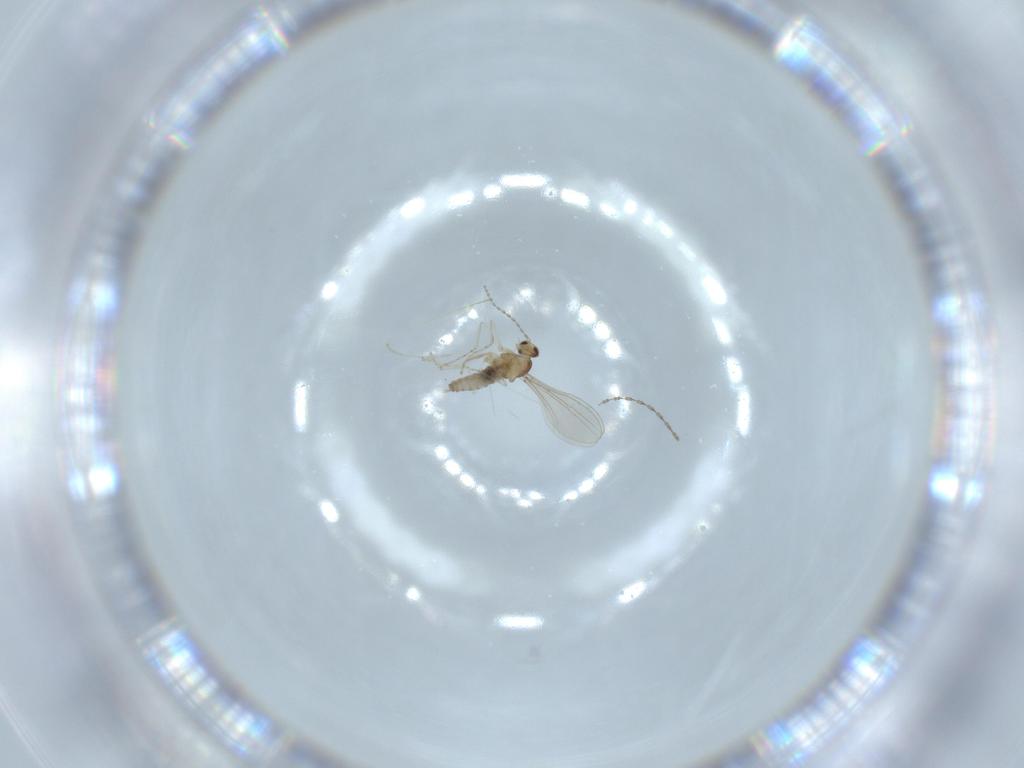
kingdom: Animalia
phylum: Arthropoda
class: Insecta
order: Diptera
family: Cecidomyiidae
